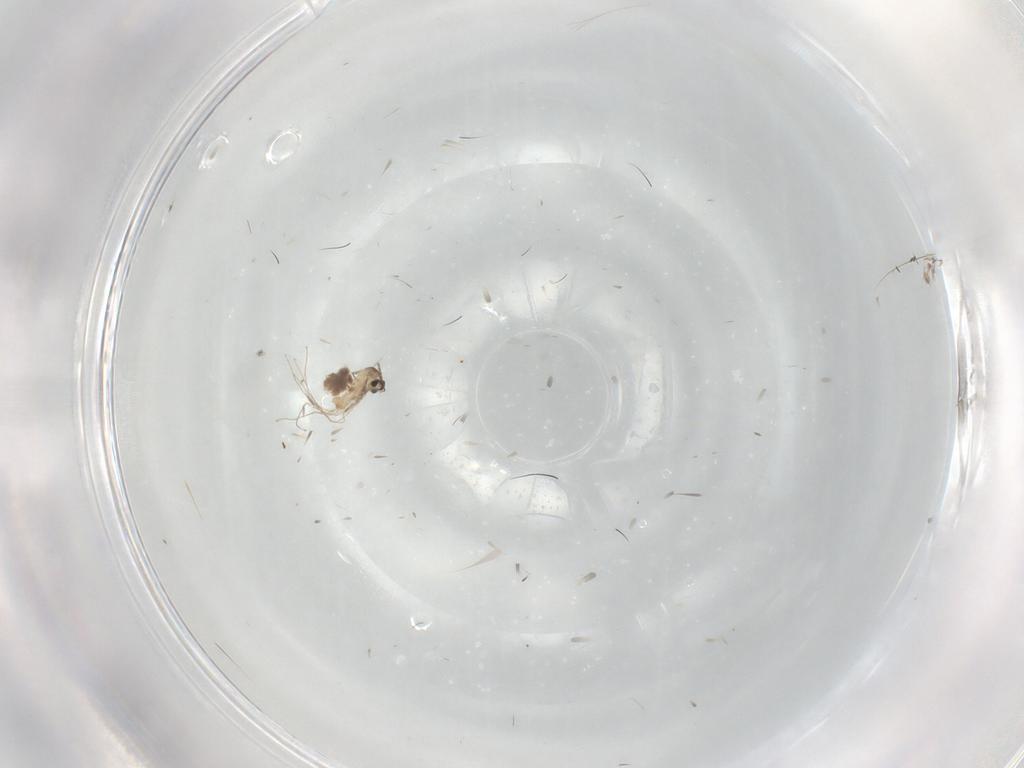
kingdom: Animalia
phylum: Arthropoda
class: Insecta
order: Diptera
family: Cecidomyiidae
